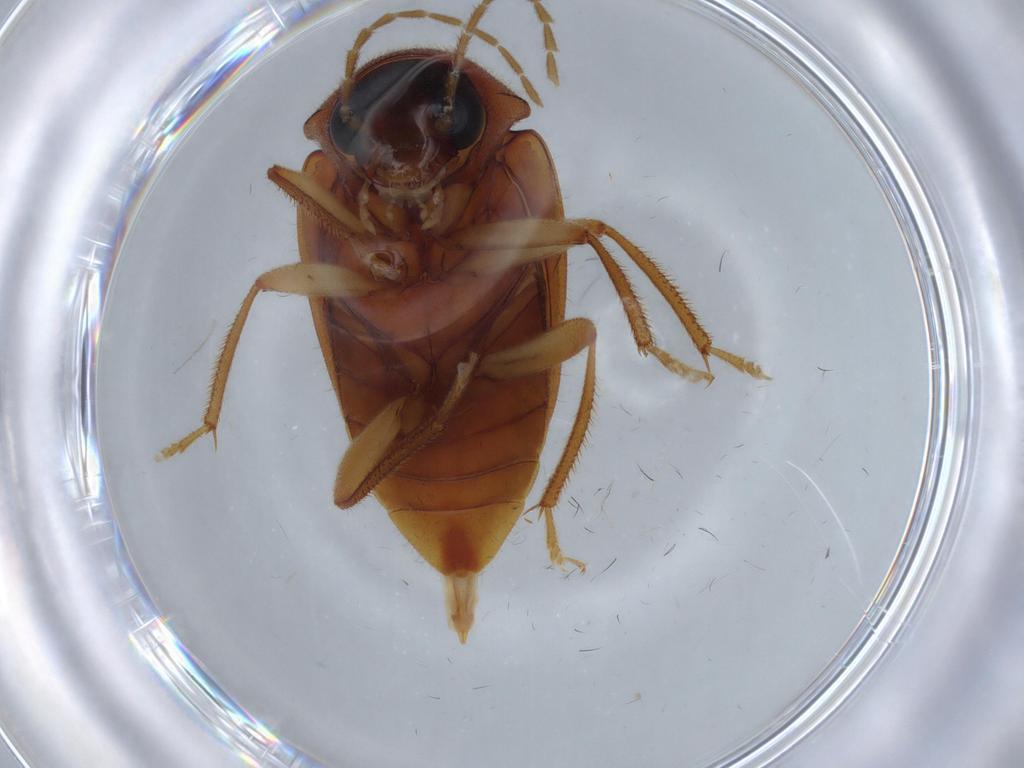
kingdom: Animalia
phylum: Arthropoda
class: Insecta
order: Coleoptera
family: Ptilodactylidae
